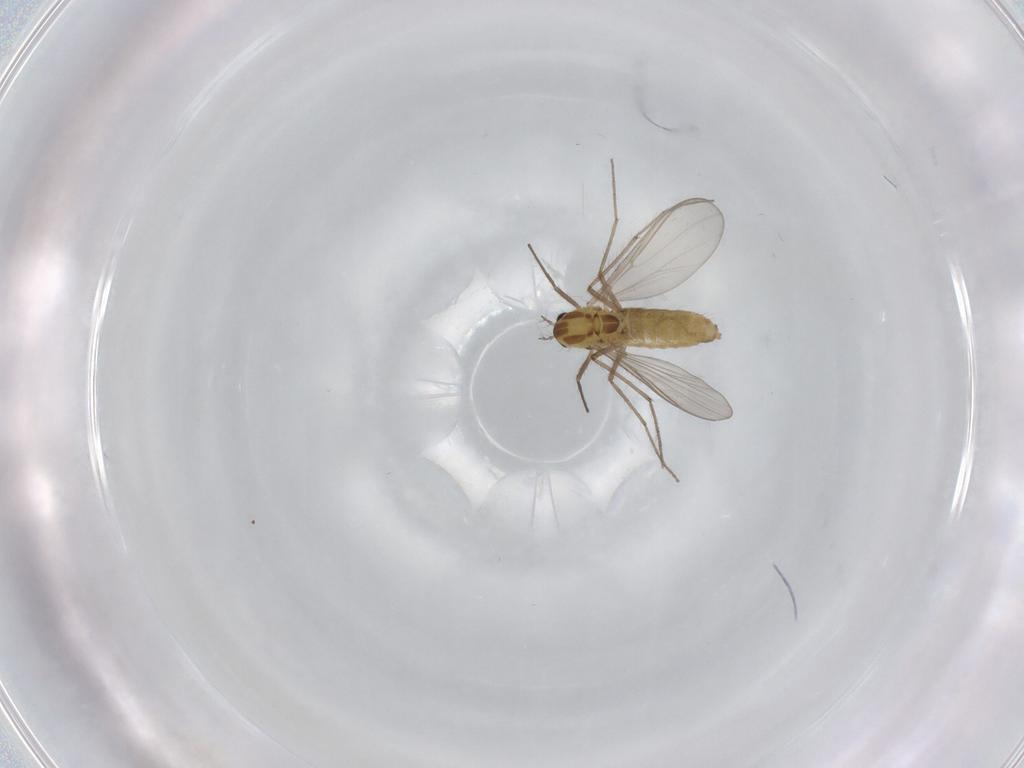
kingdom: Animalia
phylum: Arthropoda
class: Insecta
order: Diptera
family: Chironomidae
